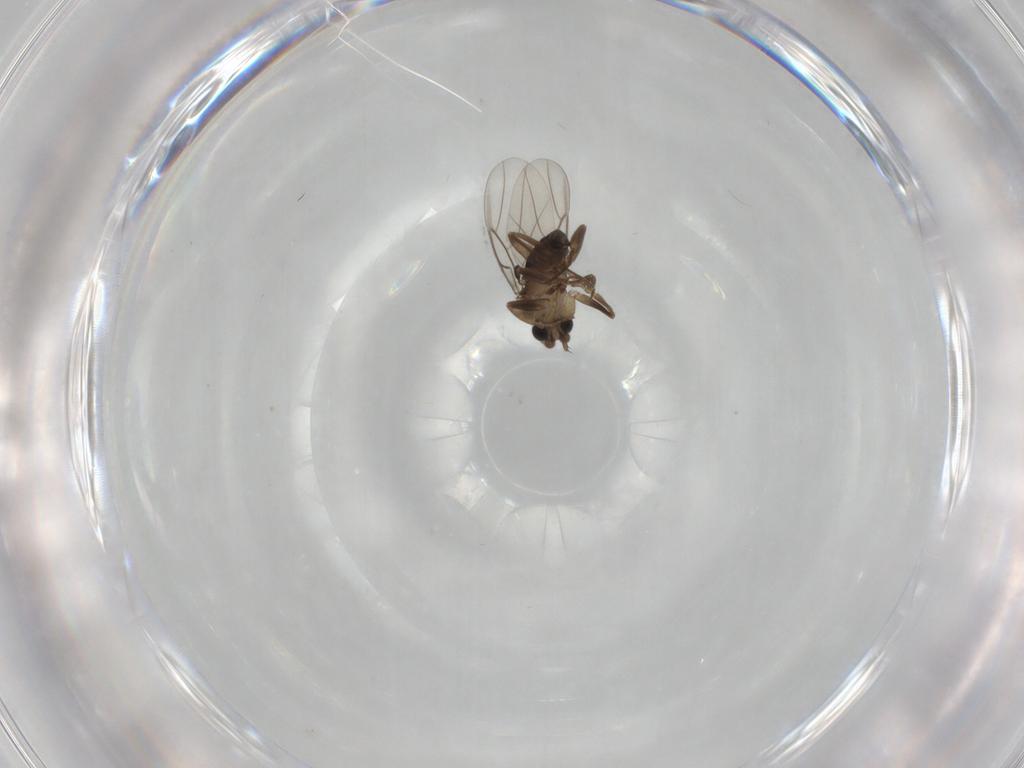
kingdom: Animalia
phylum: Arthropoda
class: Insecta
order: Diptera
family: Phoridae
